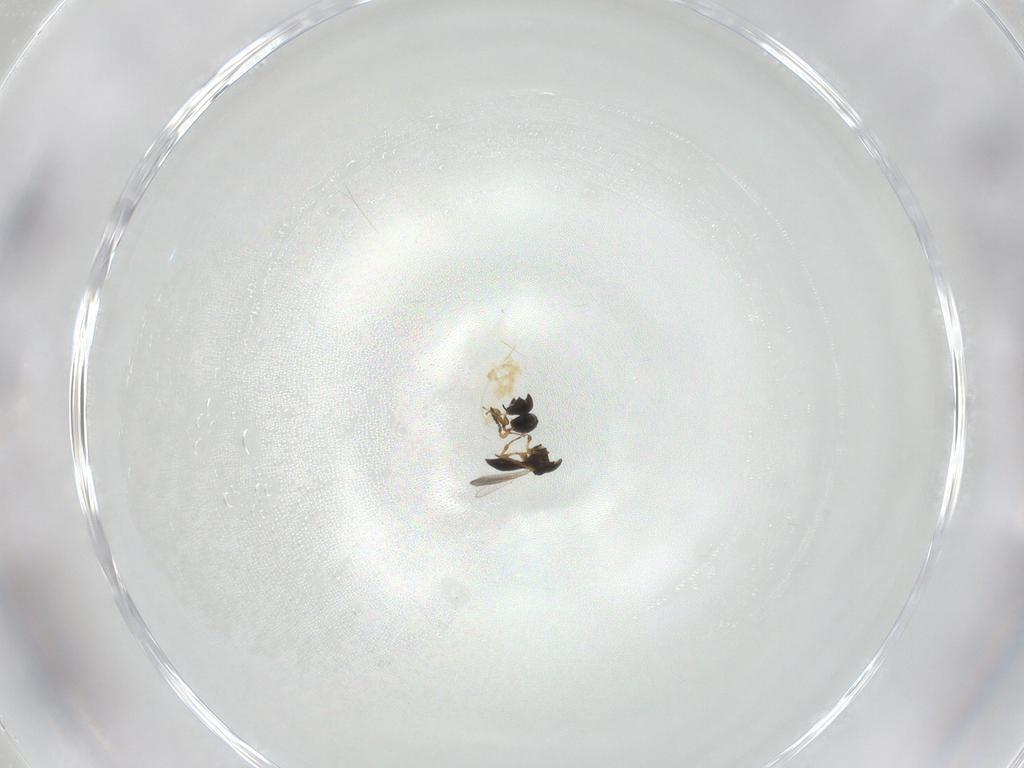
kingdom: Animalia
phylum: Arthropoda
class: Insecta
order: Hymenoptera
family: Platygastridae
